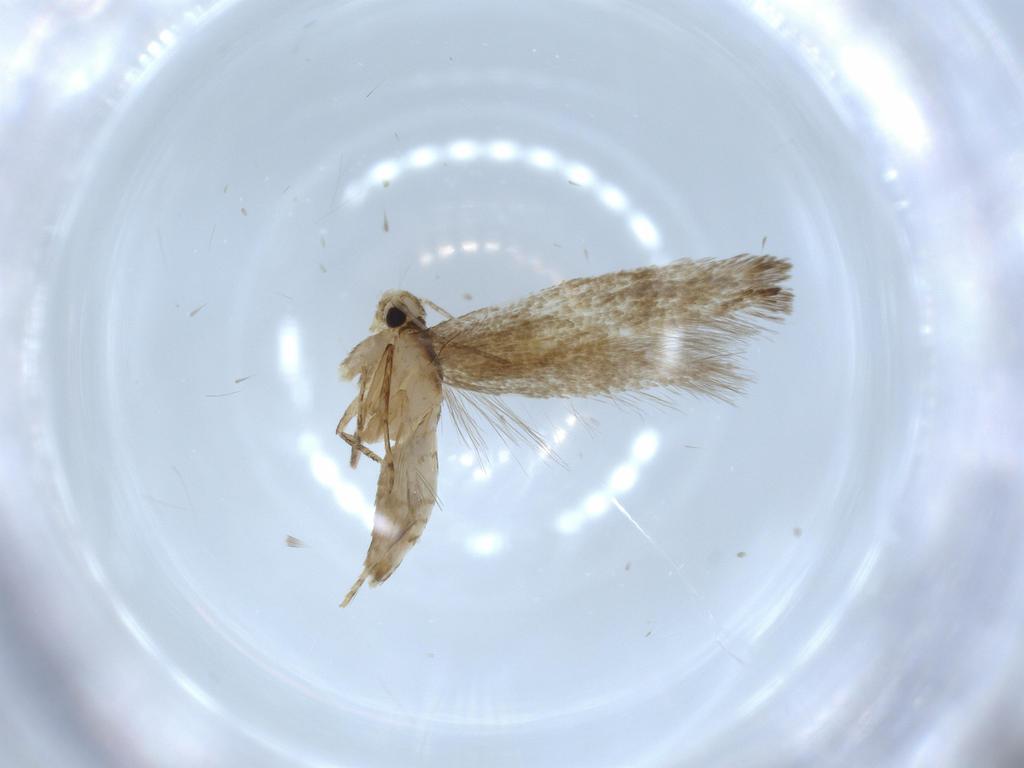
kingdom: Animalia
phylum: Arthropoda
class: Insecta
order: Lepidoptera
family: Tineidae
